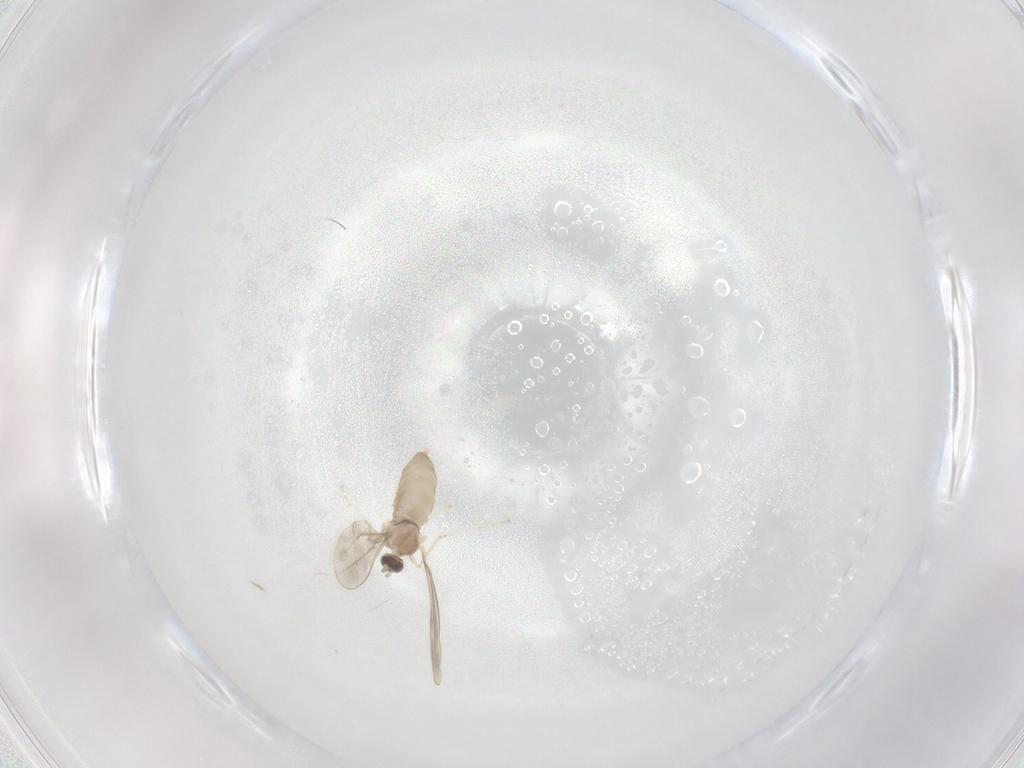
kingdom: Animalia
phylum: Arthropoda
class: Insecta
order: Diptera
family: Cecidomyiidae
